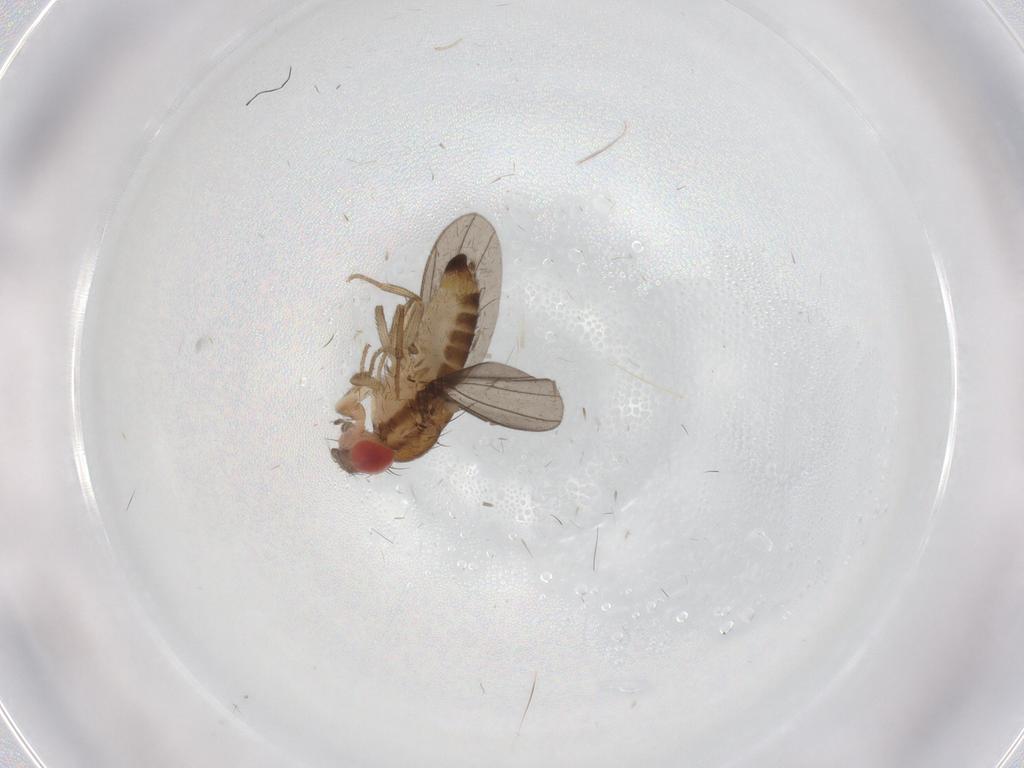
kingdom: Animalia
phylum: Arthropoda
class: Insecta
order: Diptera
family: Drosophilidae
